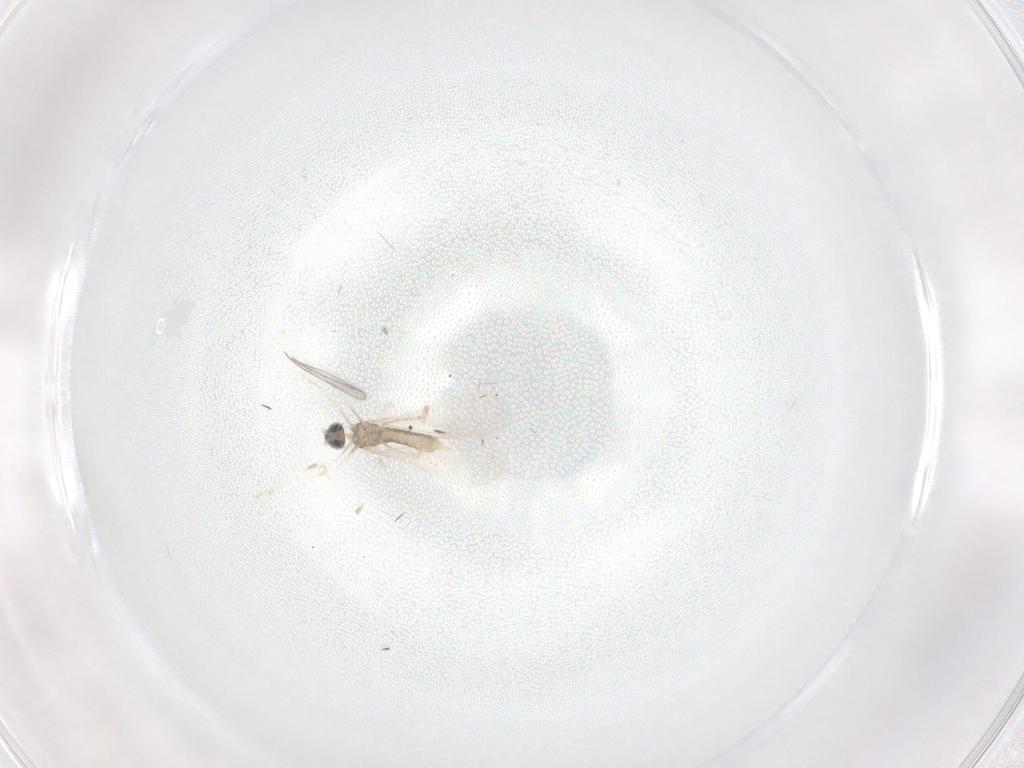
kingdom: Animalia
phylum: Arthropoda
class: Insecta
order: Diptera
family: Cecidomyiidae
